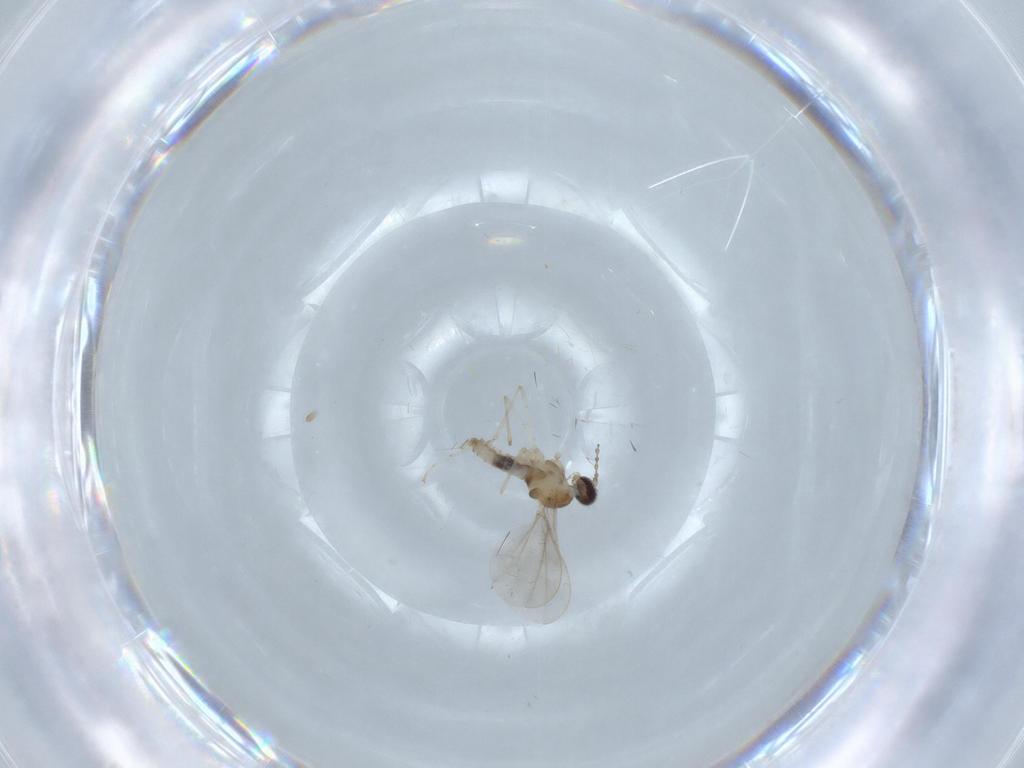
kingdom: Animalia
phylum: Arthropoda
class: Insecta
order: Diptera
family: Cecidomyiidae
